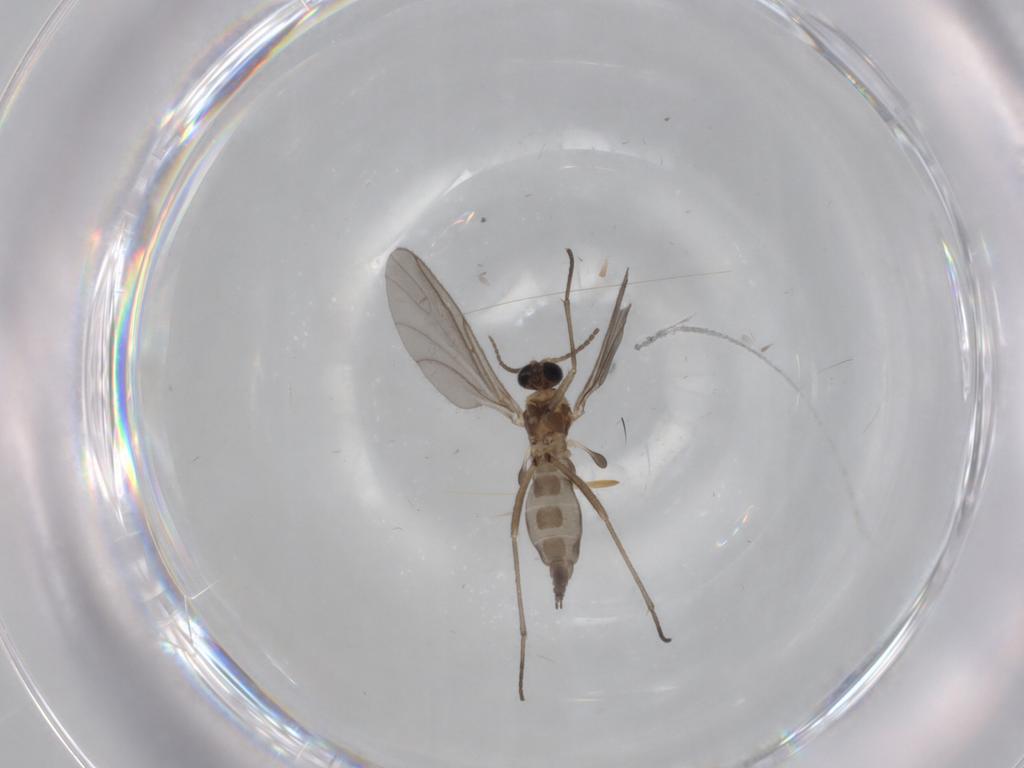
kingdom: Animalia
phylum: Arthropoda
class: Insecta
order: Diptera
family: Sciaridae
